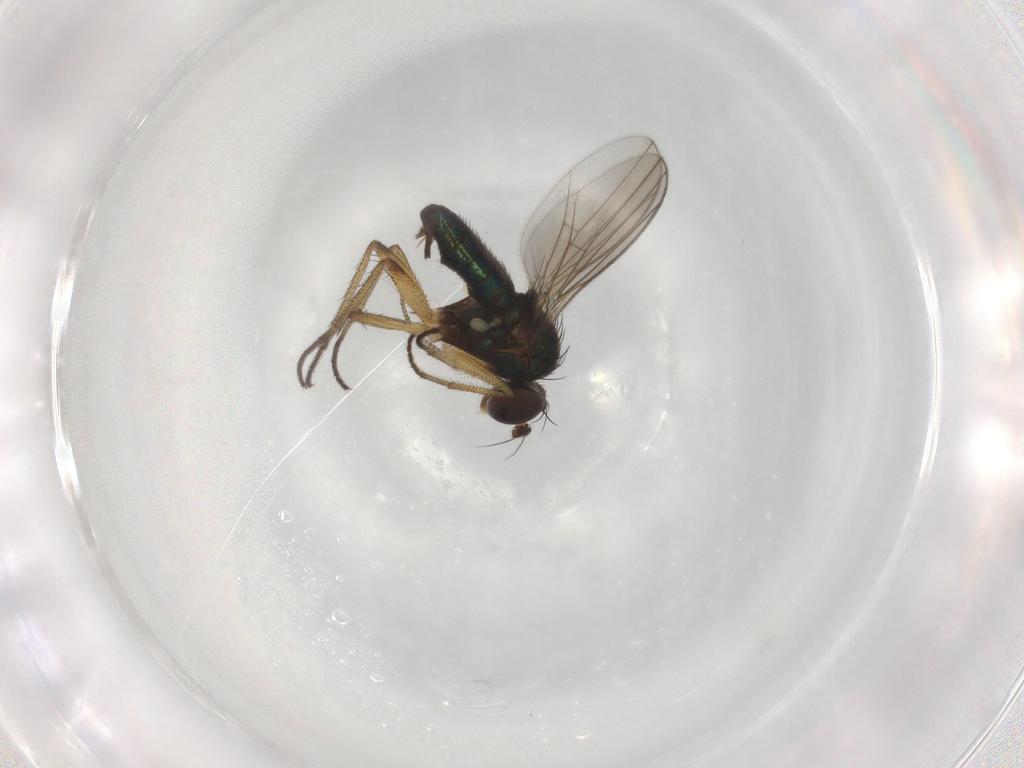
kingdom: Animalia
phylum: Arthropoda
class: Insecta
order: Diptera
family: Dolichopodidae
